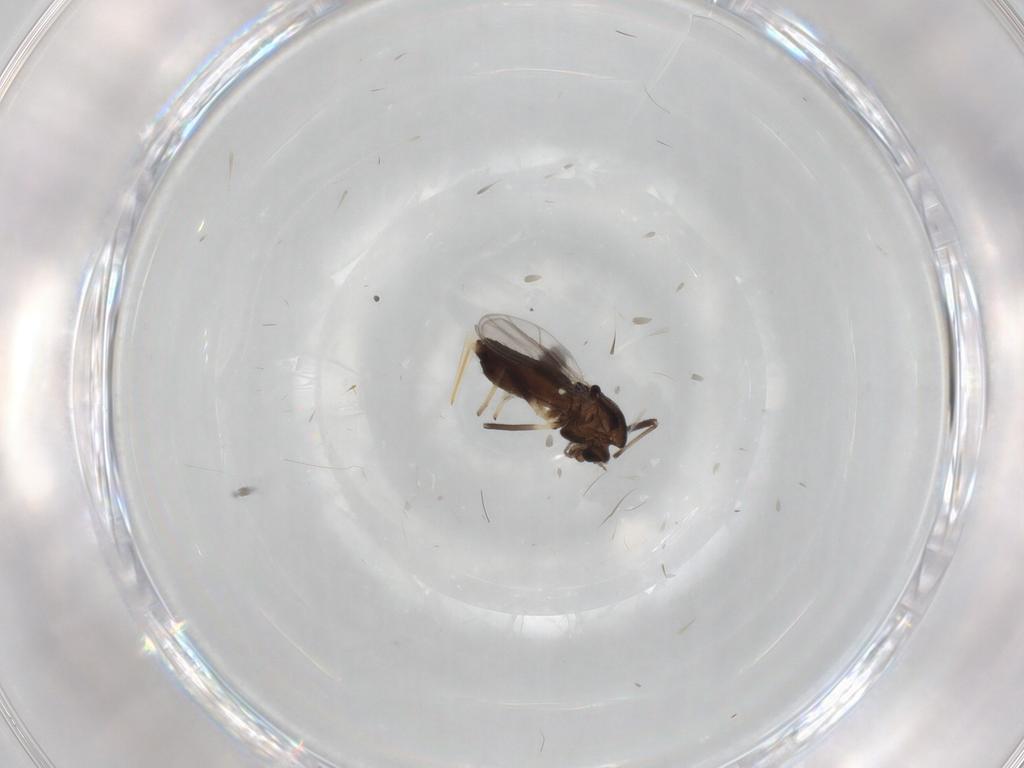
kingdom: Animalia
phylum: Arthropoda
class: Insecta
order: Diptera
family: Chironomidae
